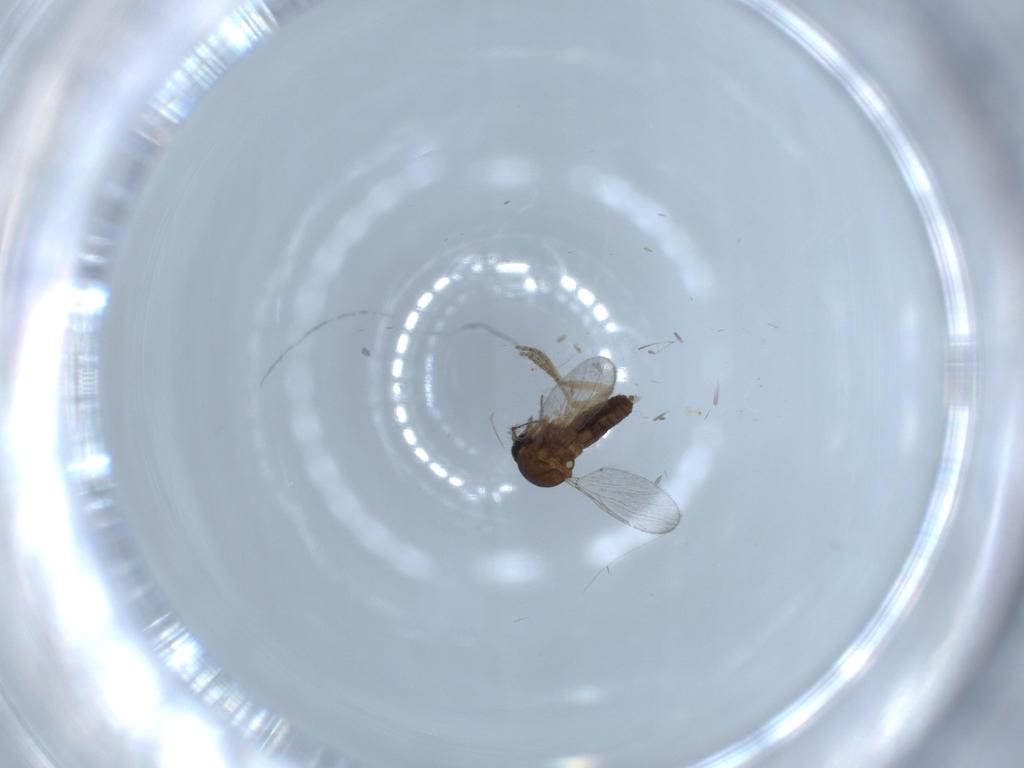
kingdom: Animalia
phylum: Arthropoda
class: Insecta
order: Diptera
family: Ceratopogonidae
